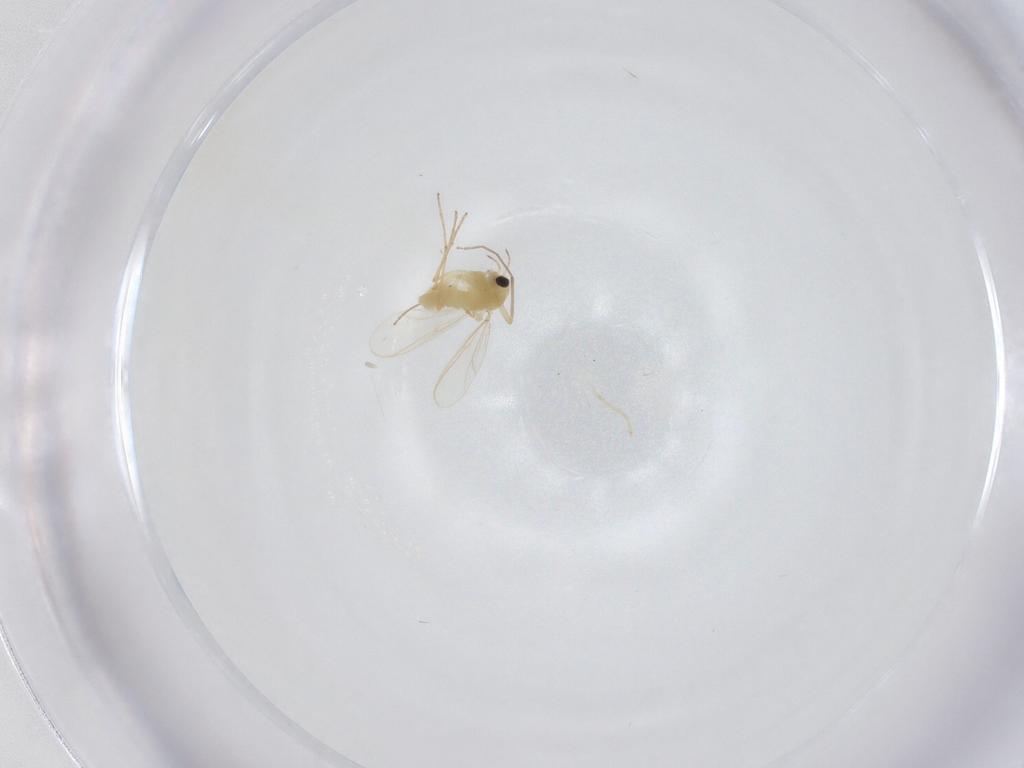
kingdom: Animalia
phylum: Arthropoda
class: Insecta
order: Diptera
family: Chironomidae
